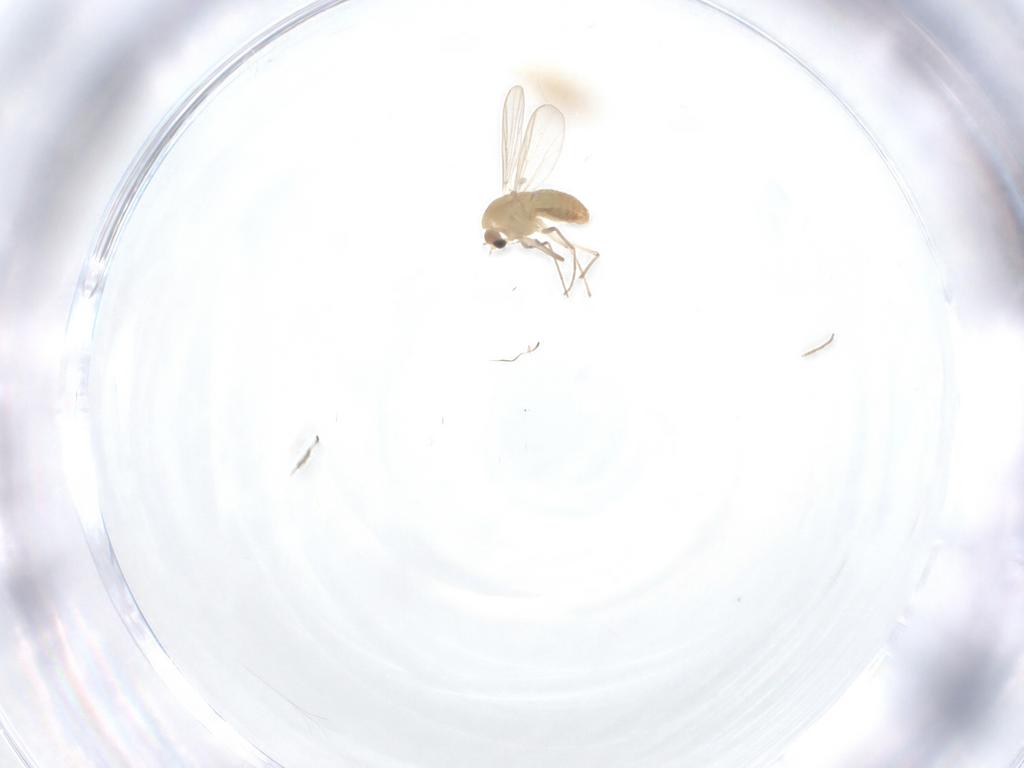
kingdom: Animalia
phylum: Arthropoda
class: Insecta
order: Diptera
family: Chironomidae
